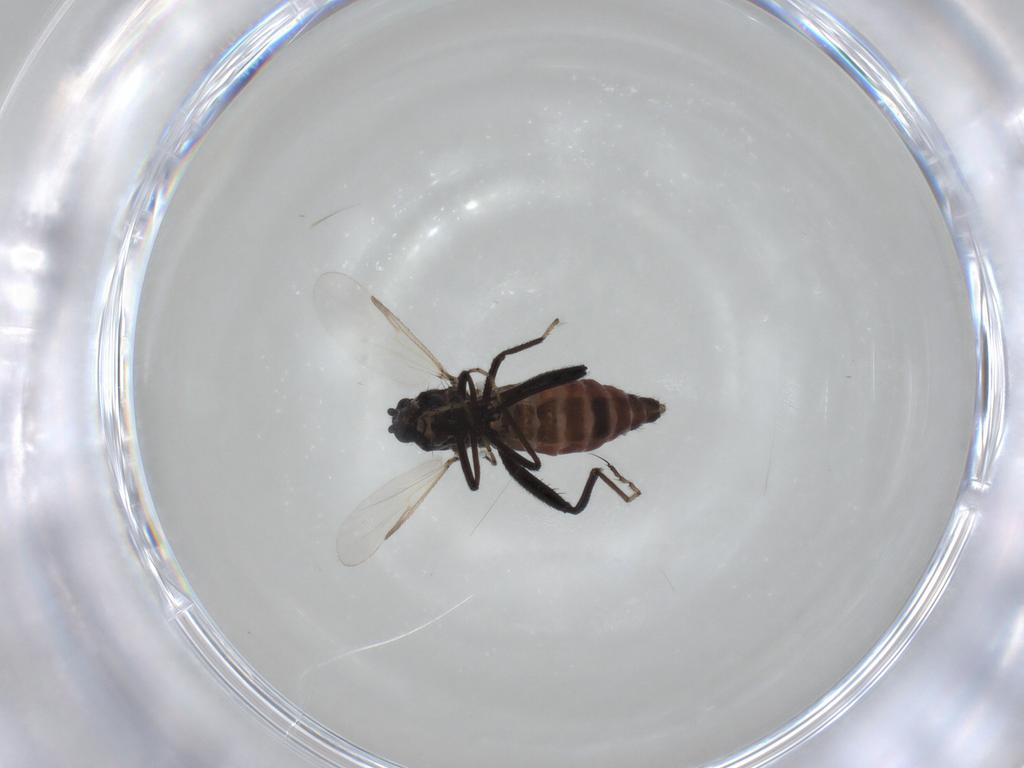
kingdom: Animalia
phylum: Arthropoda
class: Insecta
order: Diptera
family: Ceratopogonidae
